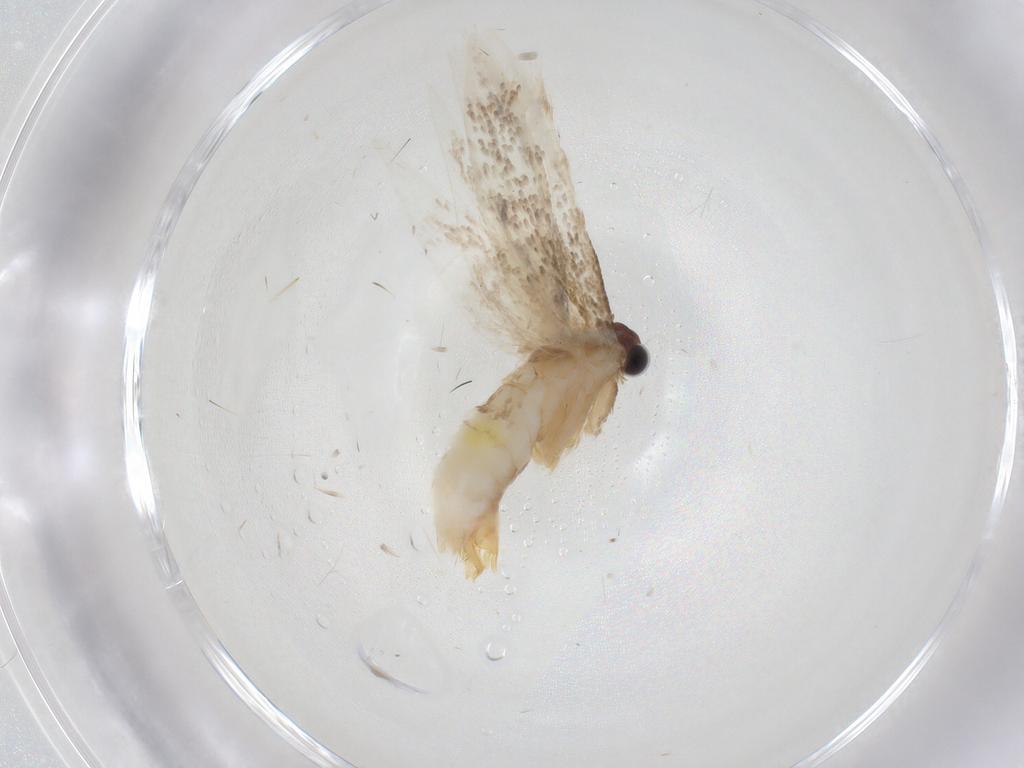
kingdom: Animalia
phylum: Arthropoda
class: Insecta
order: Lepidoptera
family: Tineidae
